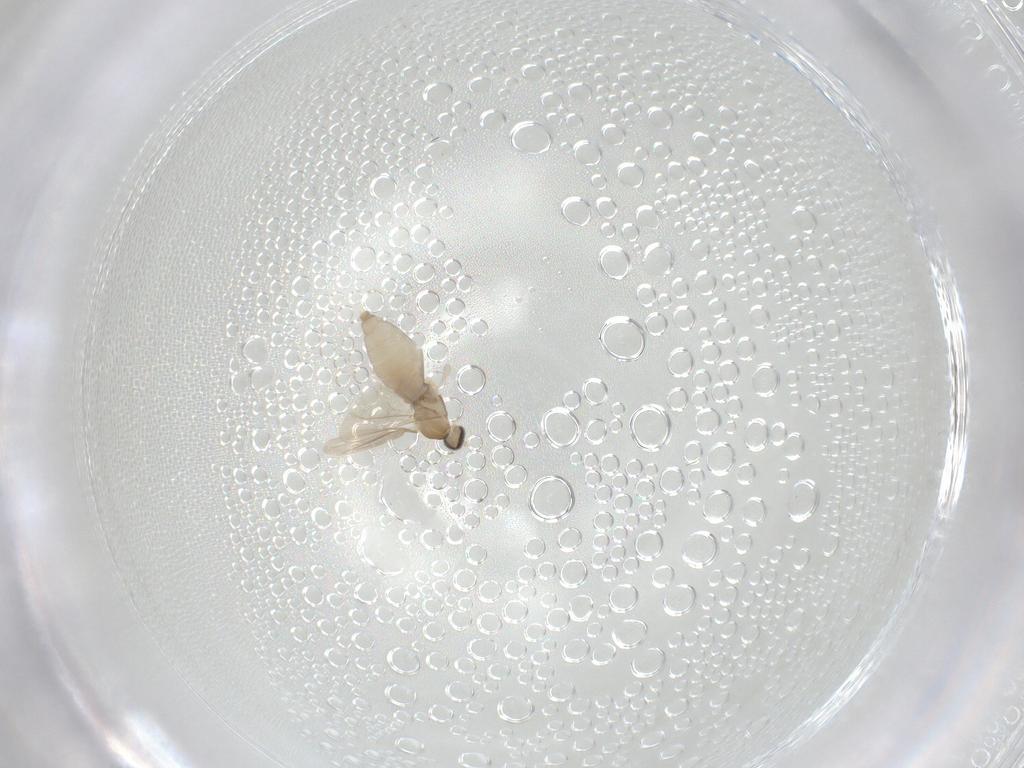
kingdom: Animalia
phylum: Arthropoda
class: Insecta
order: Diptera
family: Cecidomyiidae
